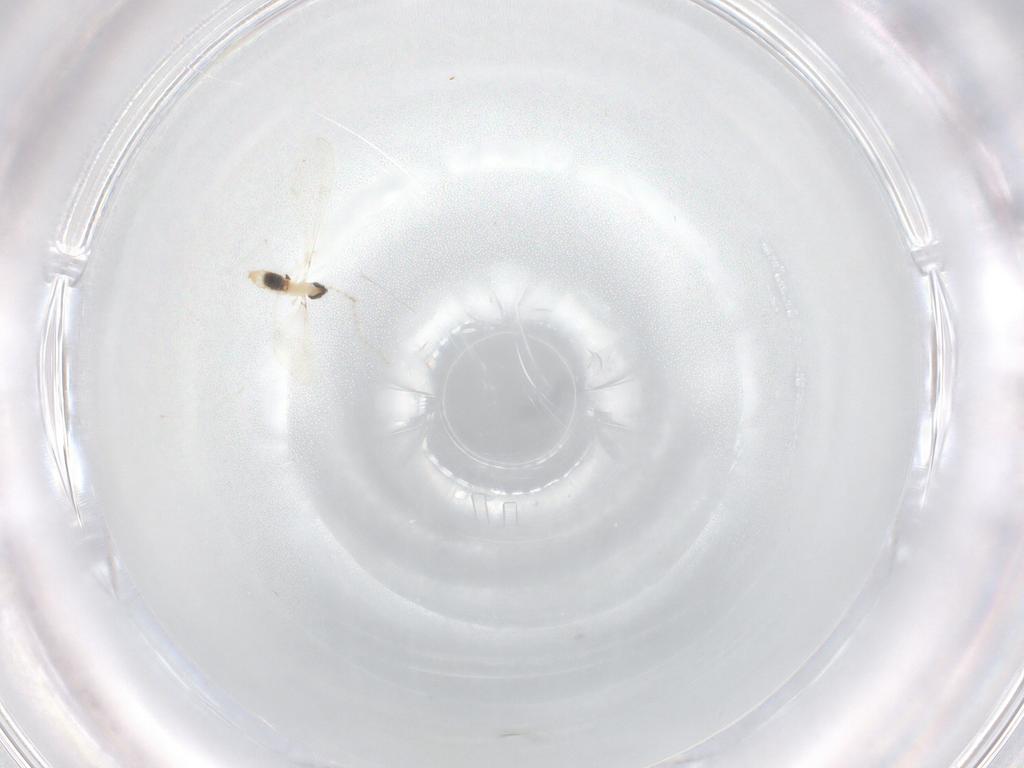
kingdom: Animalia
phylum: Arthropoda
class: Insecta
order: Diptera
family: Cecidomyiidae
